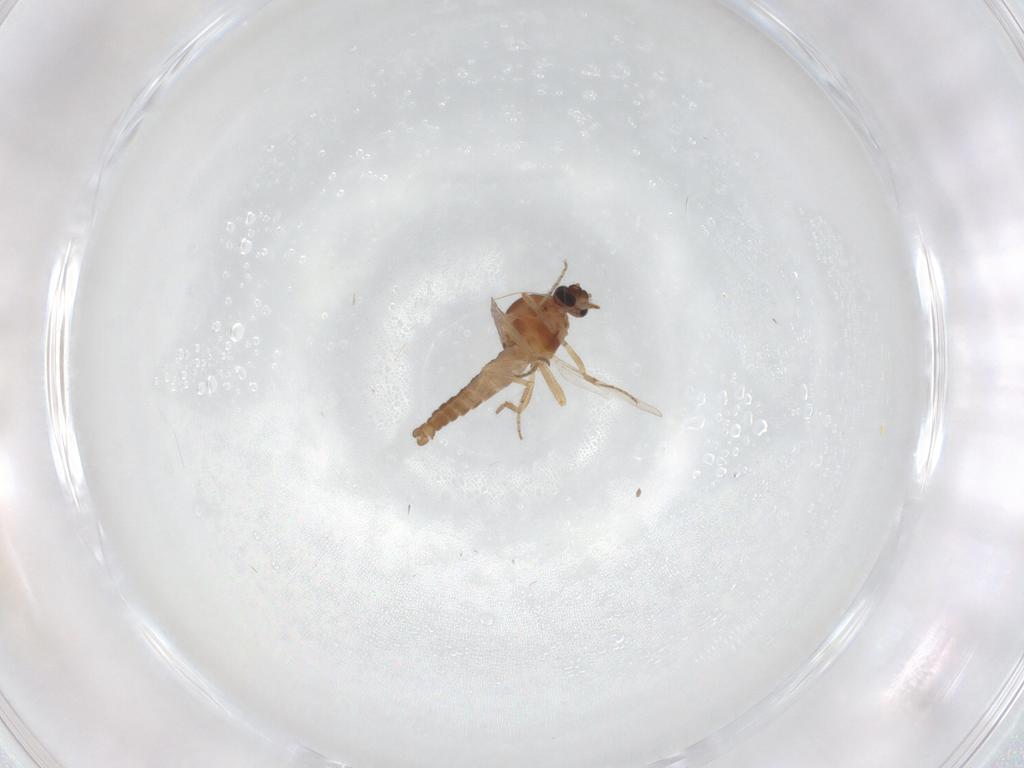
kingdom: Animalia
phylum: Arthropoda
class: Insecta
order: Diptera
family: Ceratopogonidae
